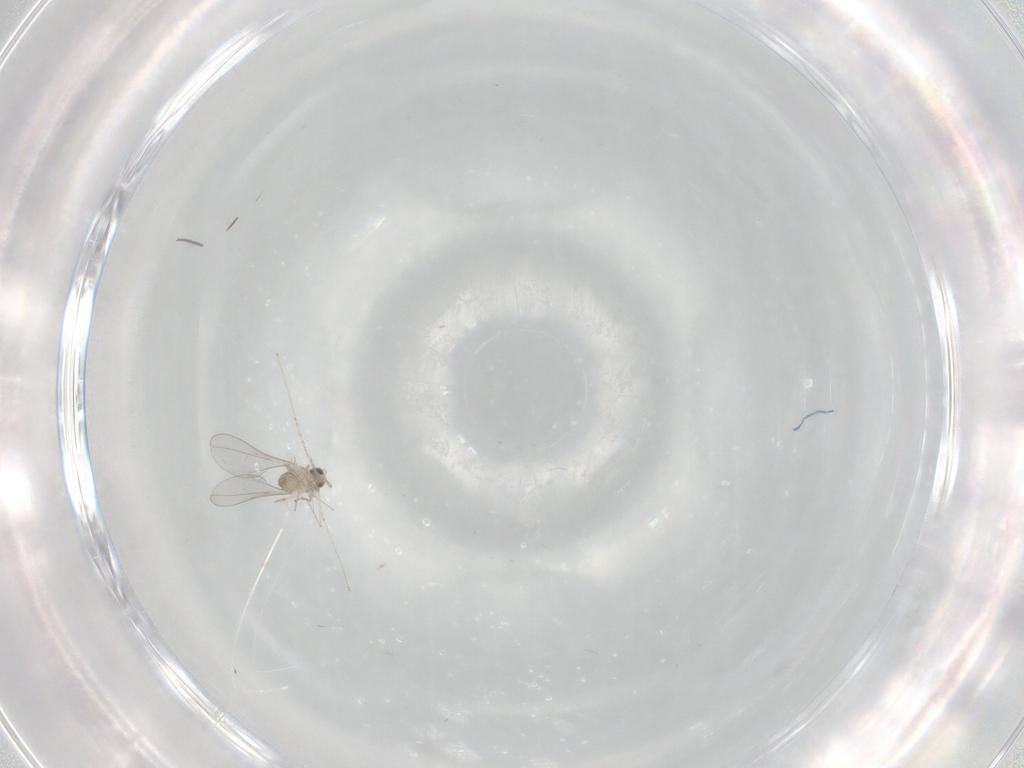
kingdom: Animalia
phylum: Arthropoda
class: Insecta
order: Diptera
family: Cecidomyiidae
